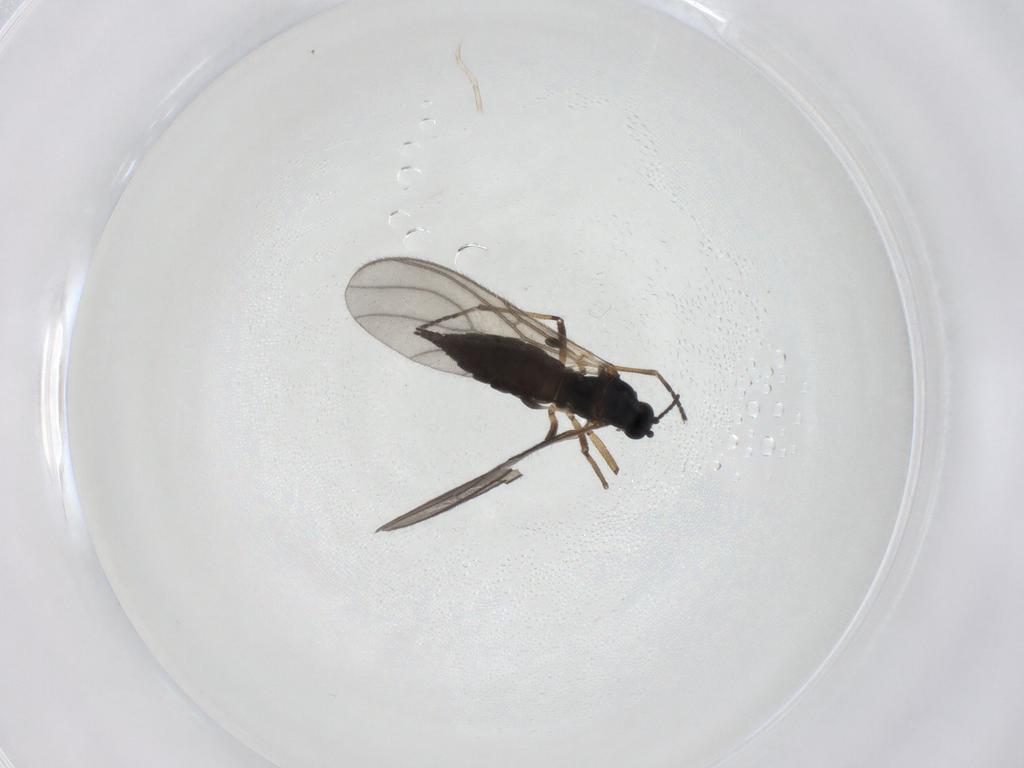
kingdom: Animalia
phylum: Arthropoda
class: Insecta
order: Diptera
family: Sciaridae
